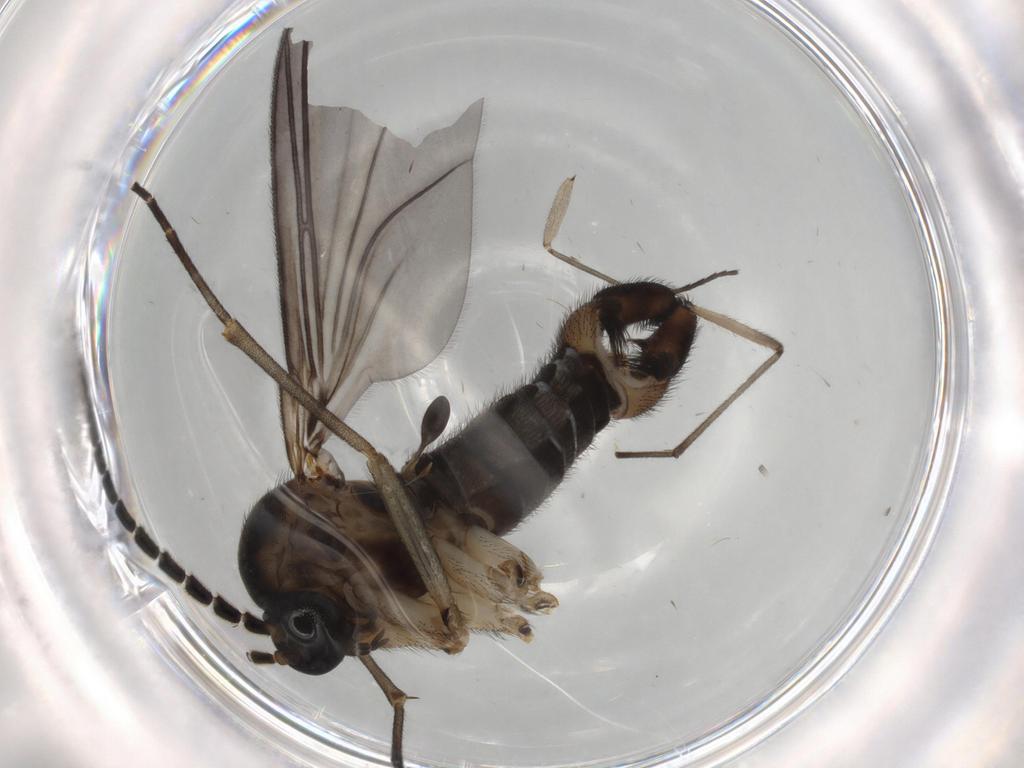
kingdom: Animalia
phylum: Arthropoda
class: Insecta
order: Diptera
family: Chironomidae
